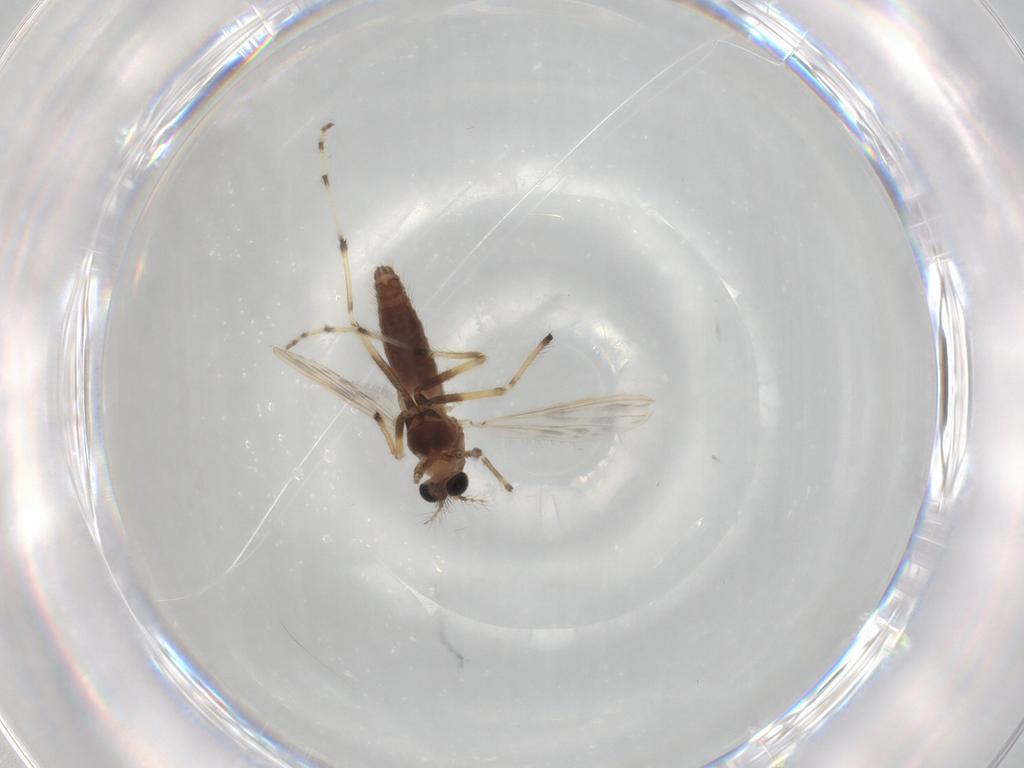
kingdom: Animalia
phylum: Arthropoda
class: Insecta
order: Diptera
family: Chironomidae
